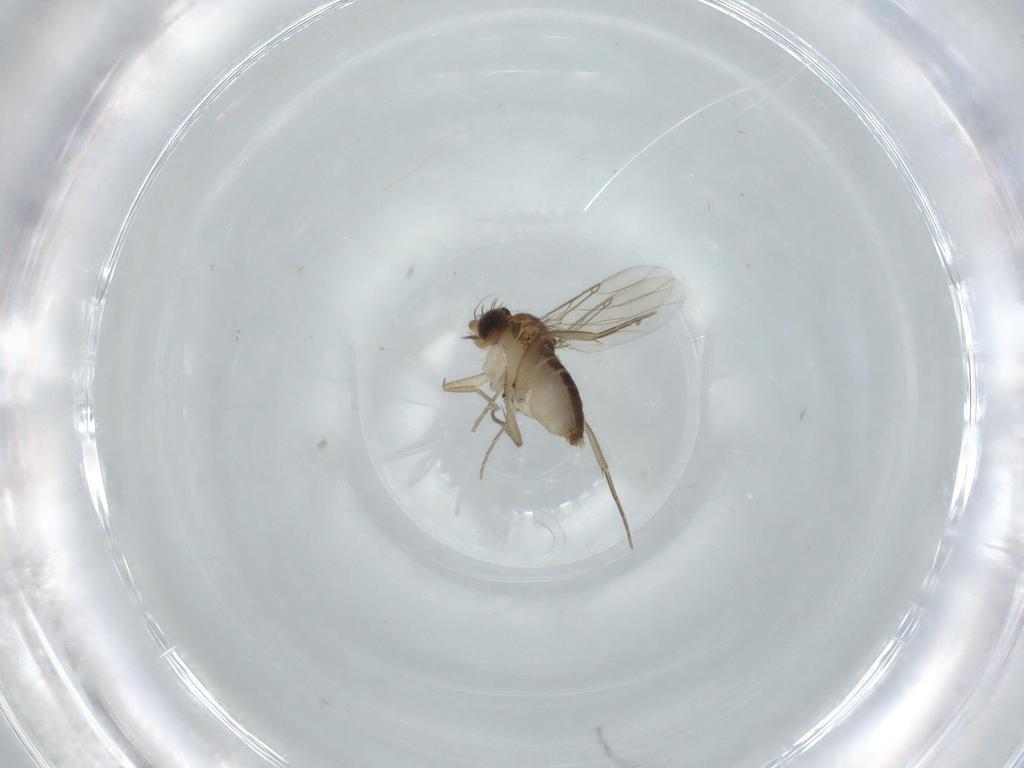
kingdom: Animalia
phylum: Arthropoda
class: Insecta
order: Diptera
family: Phoridae
